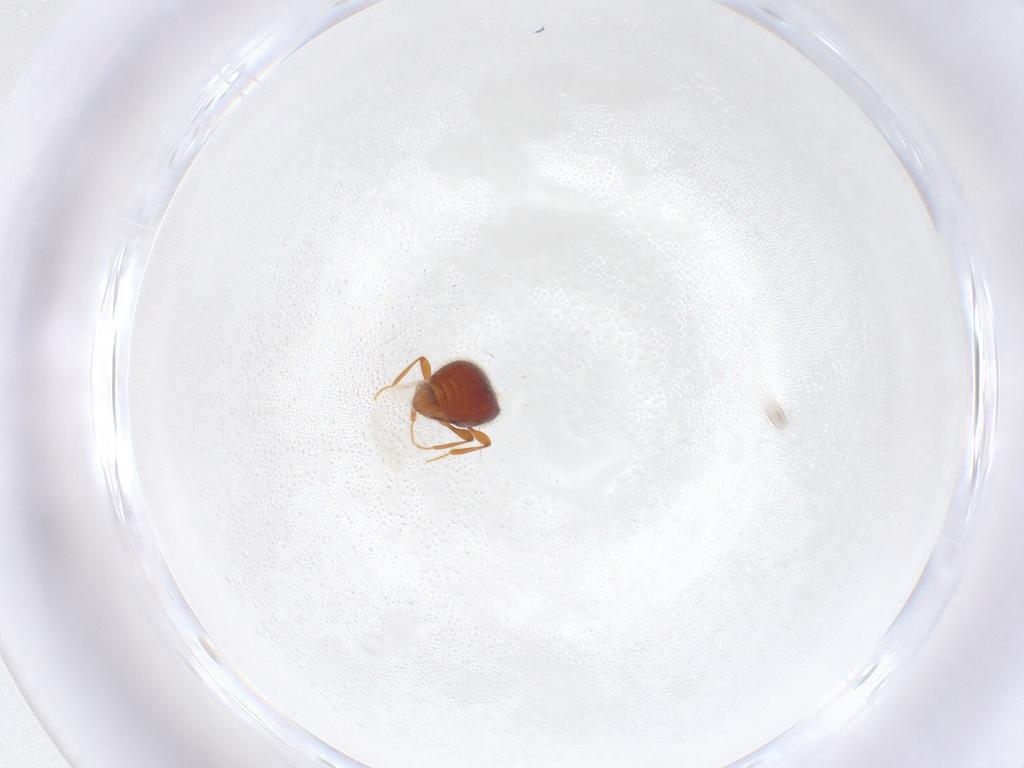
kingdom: Animalia
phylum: Arthropoda
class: Insecta
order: Coleoptera
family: Staphylinidae
